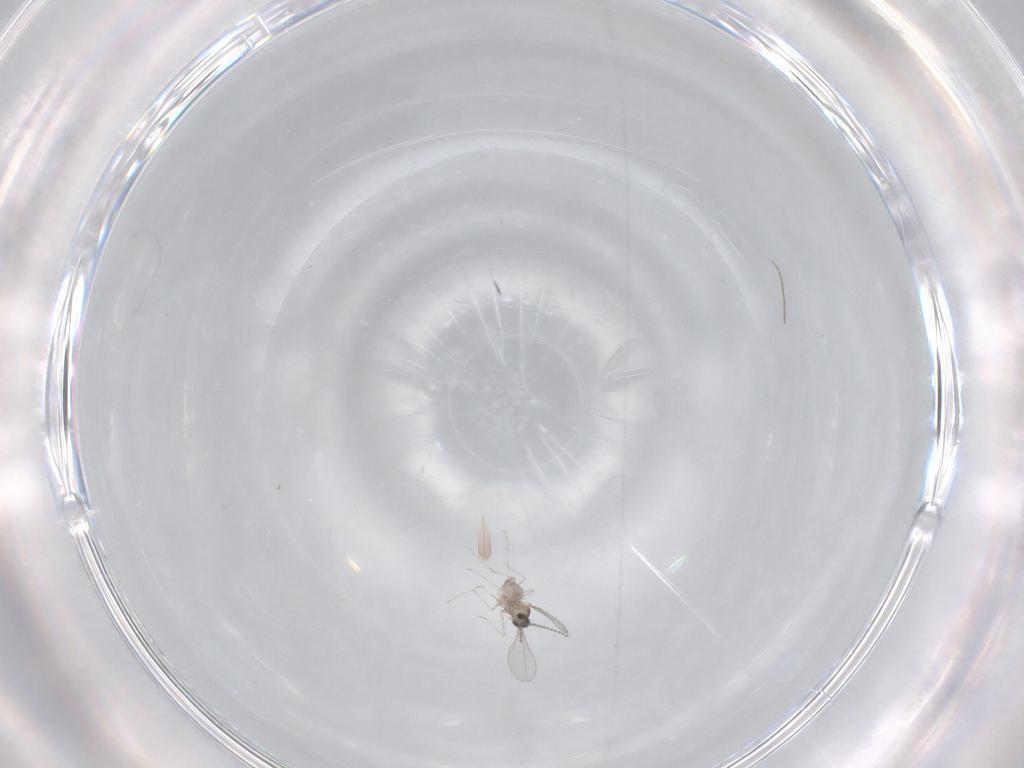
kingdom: Animalia
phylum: Arthropoda
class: Insecta
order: Diptera
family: Cecidomyiidae
